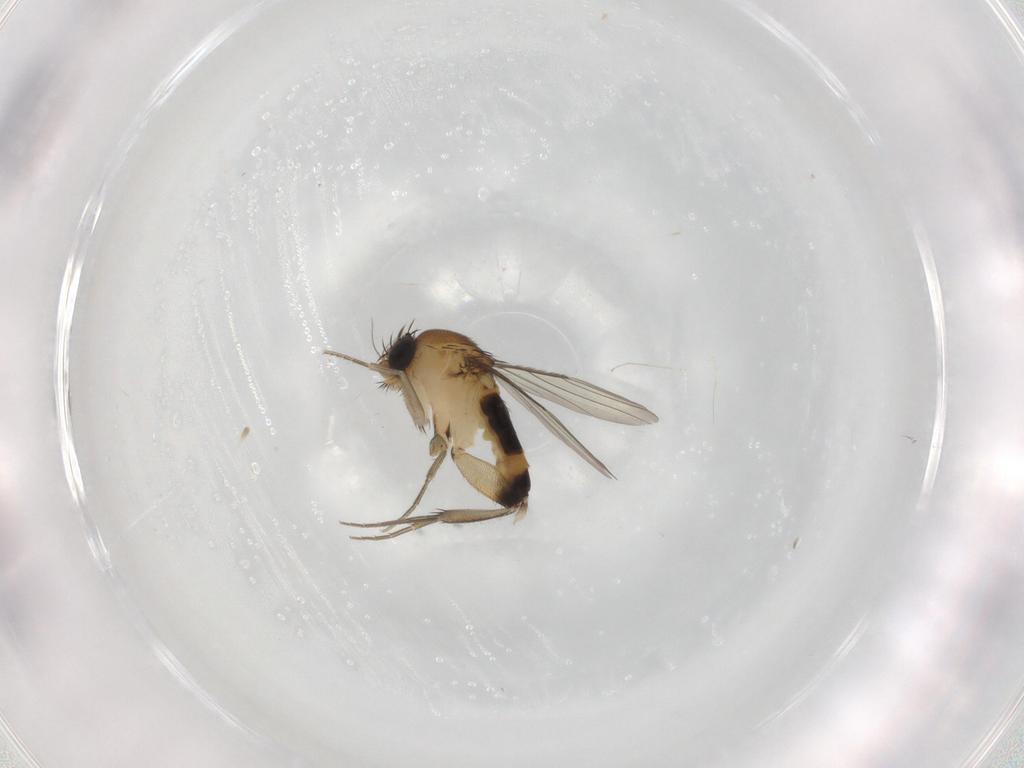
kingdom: Animalia
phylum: Arthropoda
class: Insecta
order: Diptera
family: Phoridae
